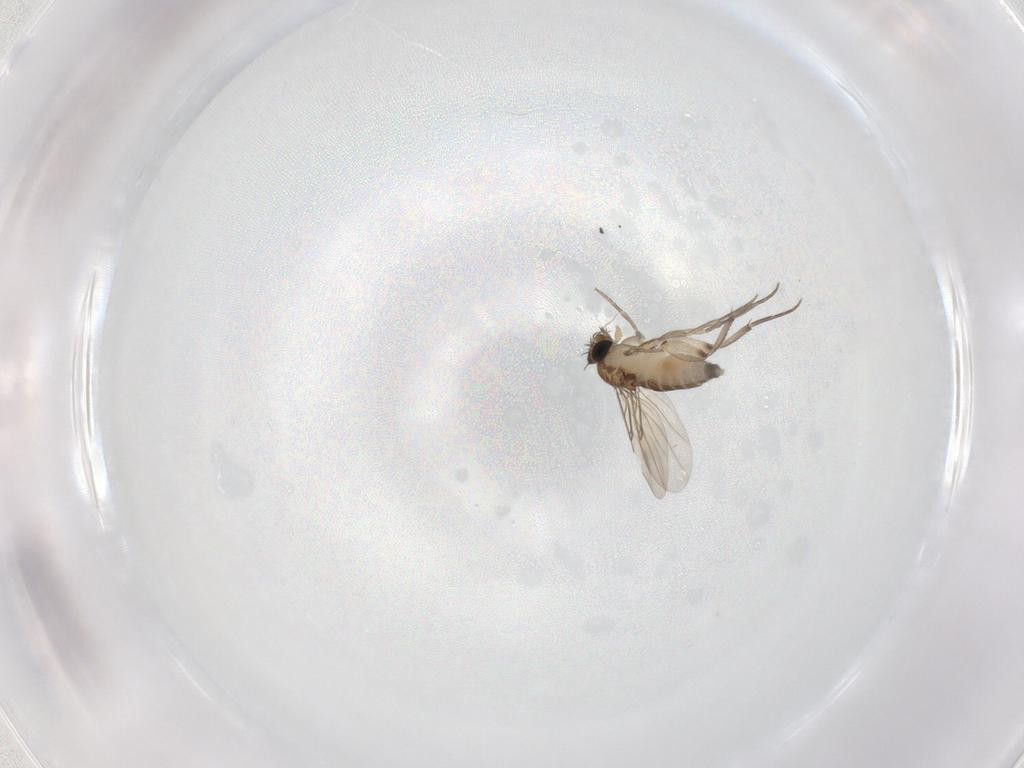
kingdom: Animalia
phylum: Arthropoda
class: Insecta
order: Diptera
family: Phoridae
